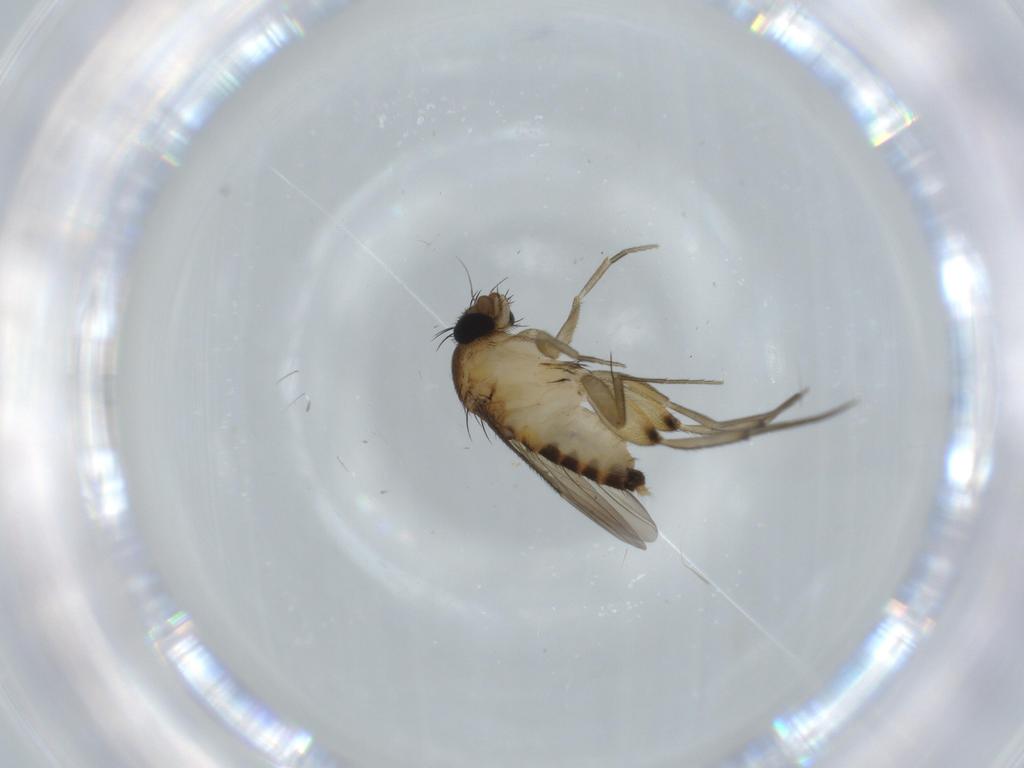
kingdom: Animalia
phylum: Arthropoda
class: Insecta
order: Diptera
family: Phoridae
